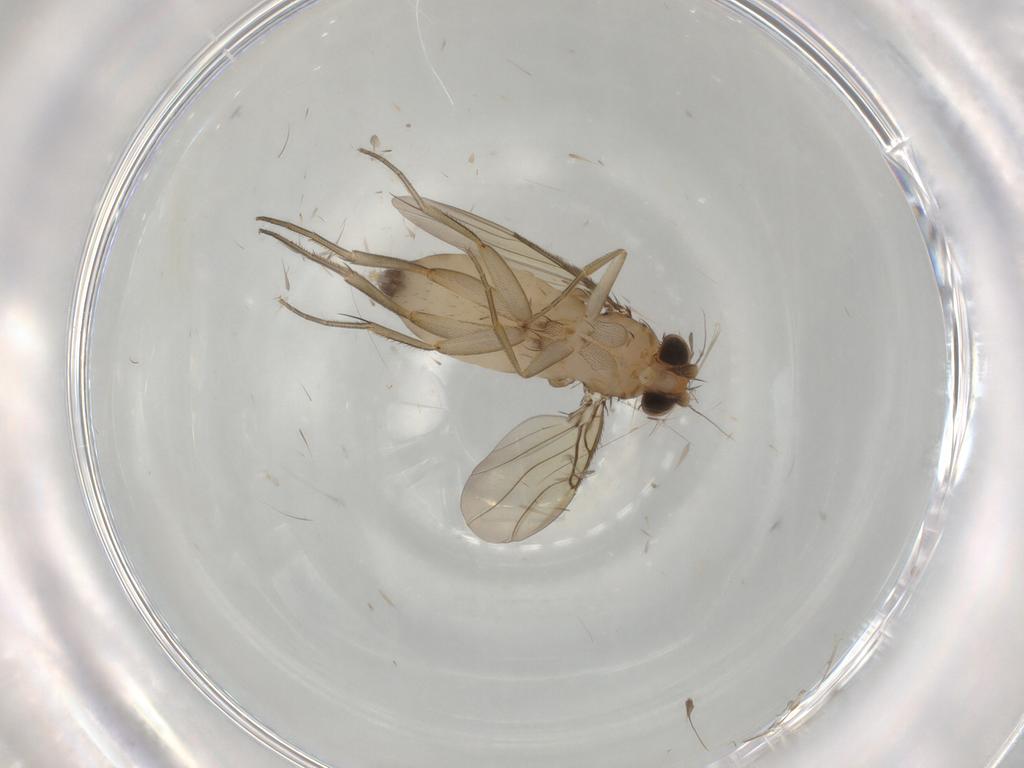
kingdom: Animalia
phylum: Arthropoda
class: Insecta
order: Diptera
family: Phoridae
